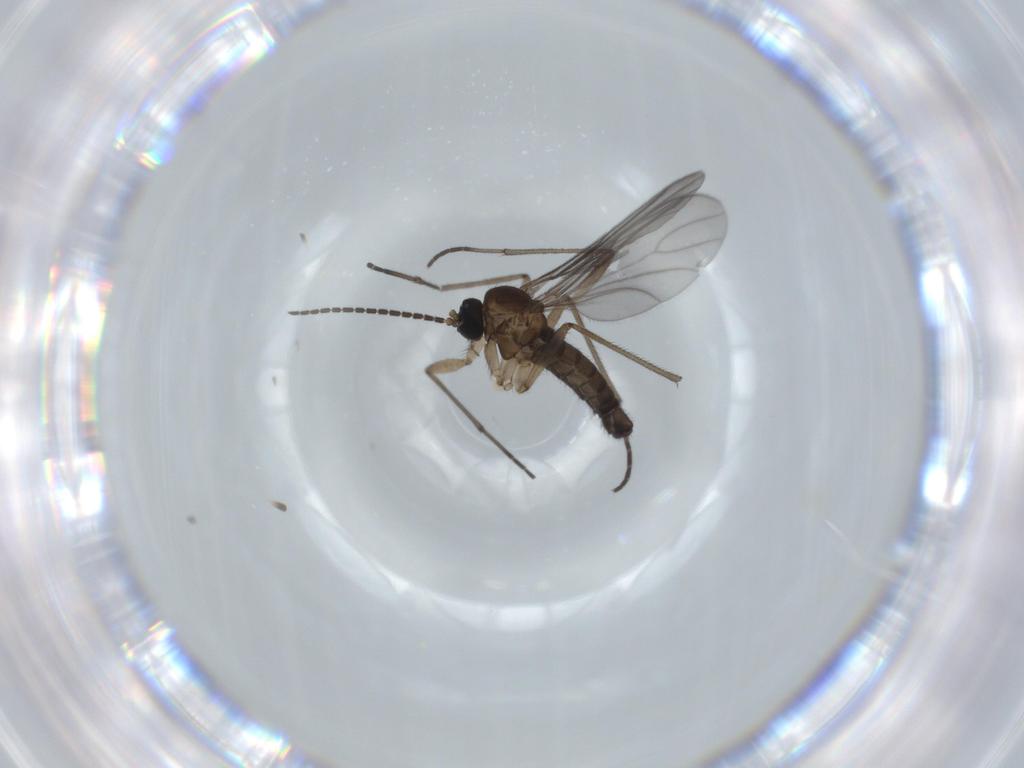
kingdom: Animalia
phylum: Arthropoda
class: Insecta
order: Diptera
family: Sciaridae
